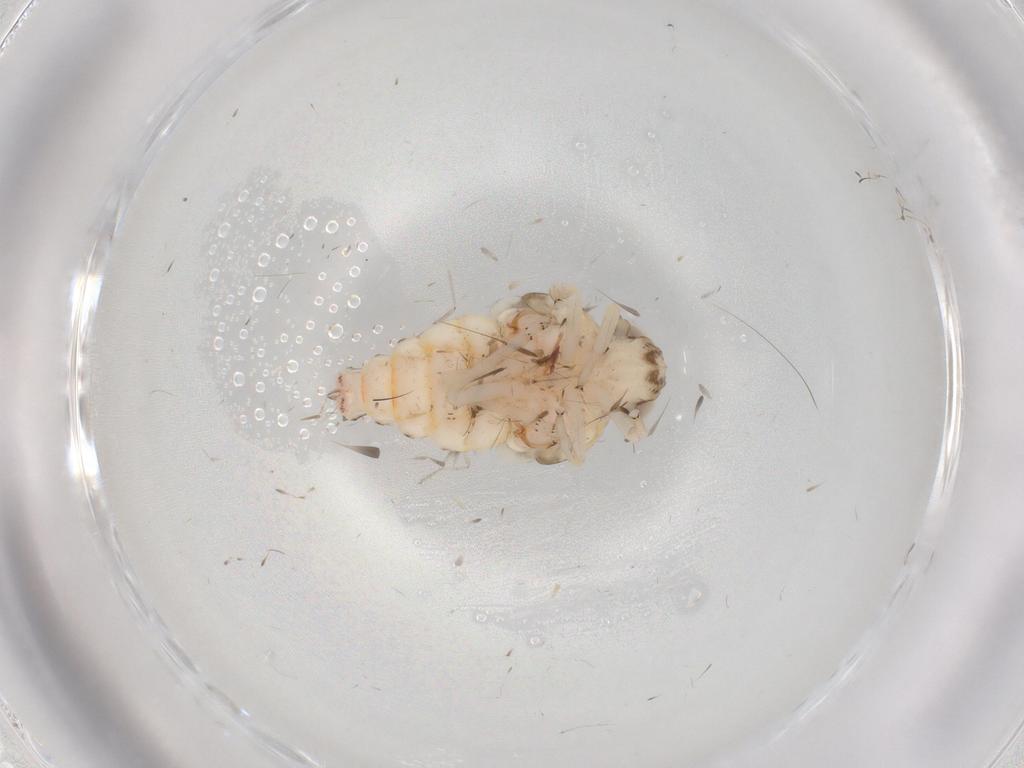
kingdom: Animalia
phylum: Arthropoda
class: Insecta
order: Hemiptera
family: Nogodinidae
